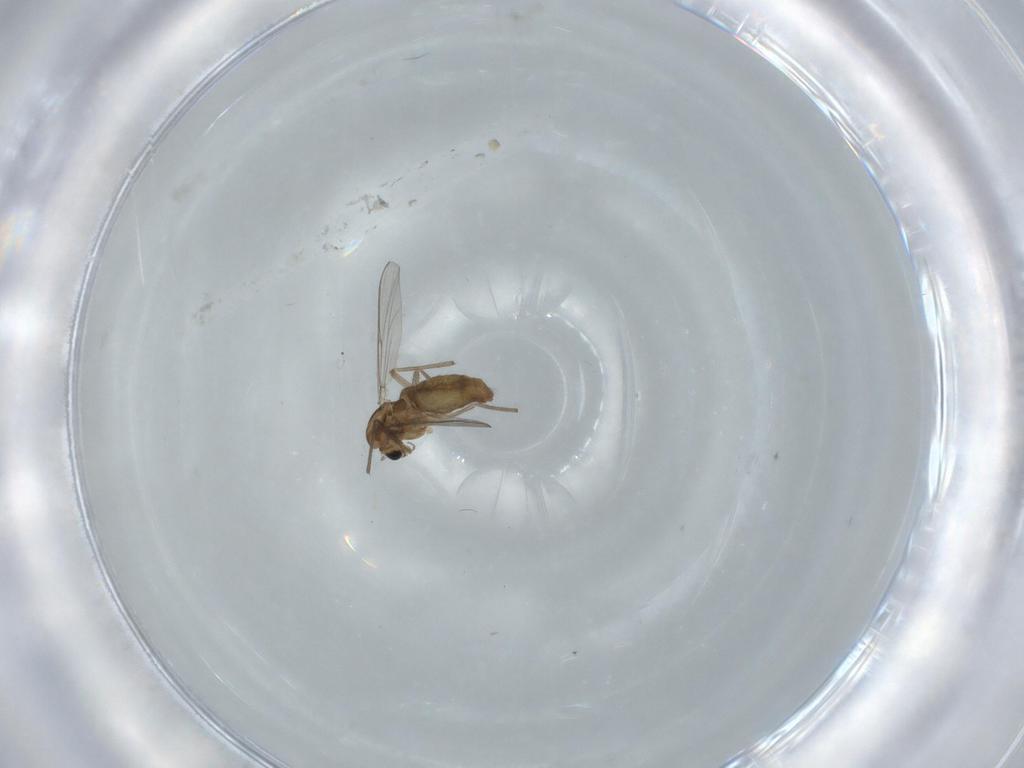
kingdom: Animalia
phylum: Arthropoda
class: Insecta
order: Diptera
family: Chironomidae
